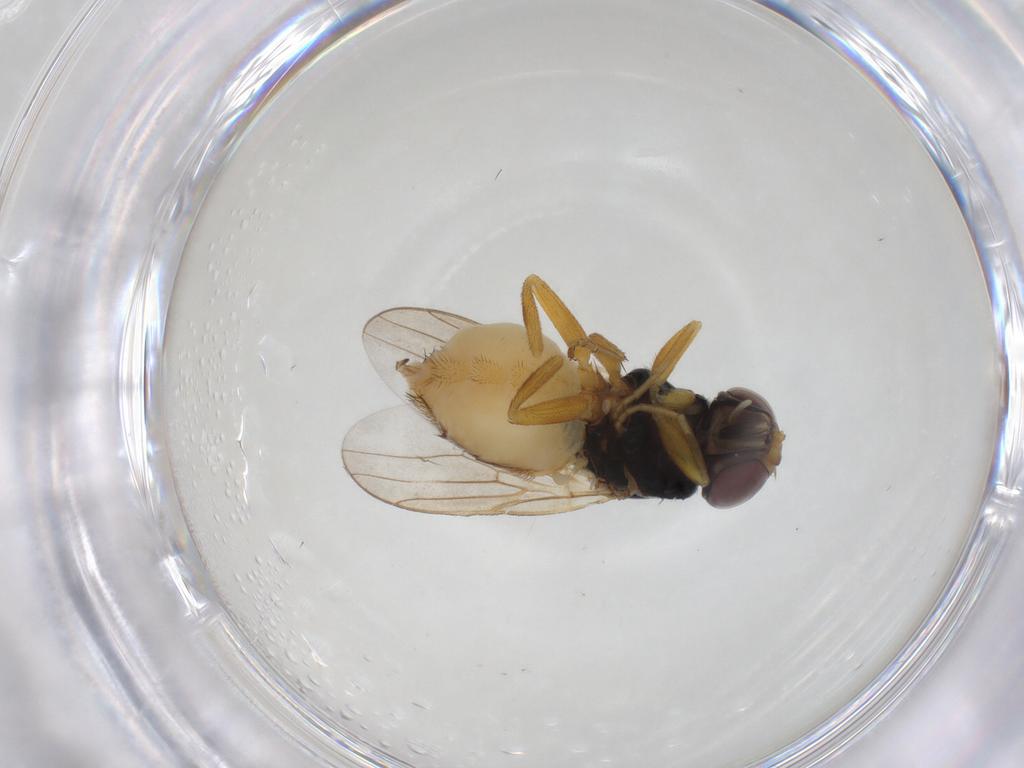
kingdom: Animalia
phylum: Arthropoda
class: Insecta
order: Diptera
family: Chloropidae
